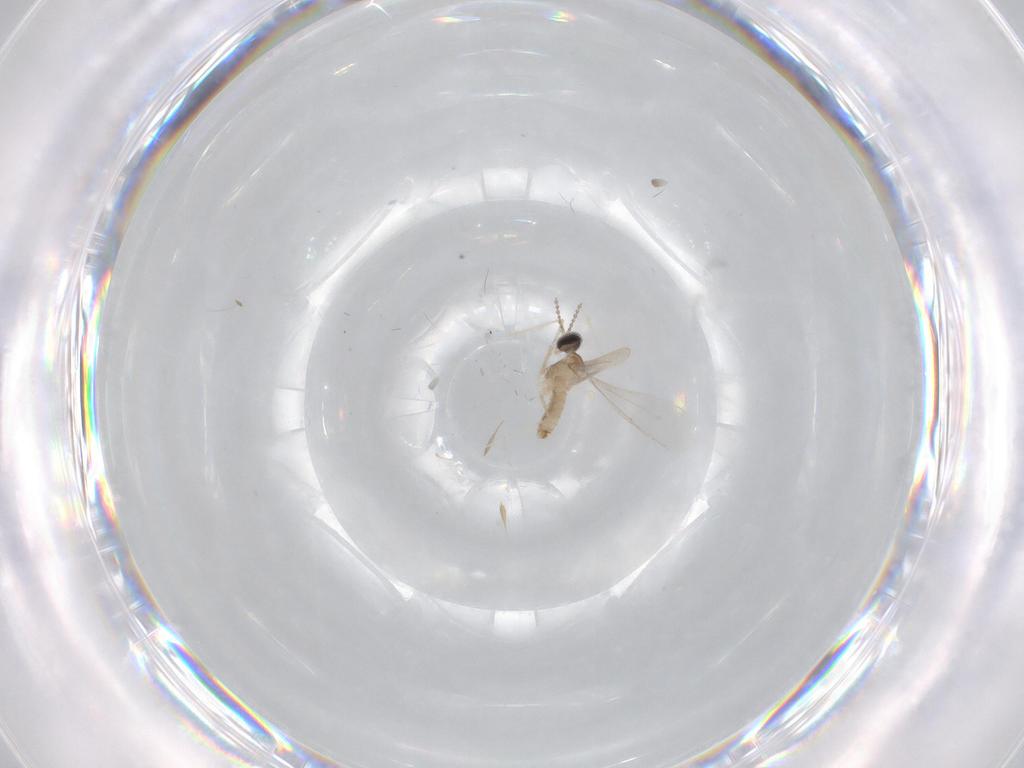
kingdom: Animalia
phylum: Arthropoda
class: Insecta
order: Diptera
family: Cecidomyiidae
